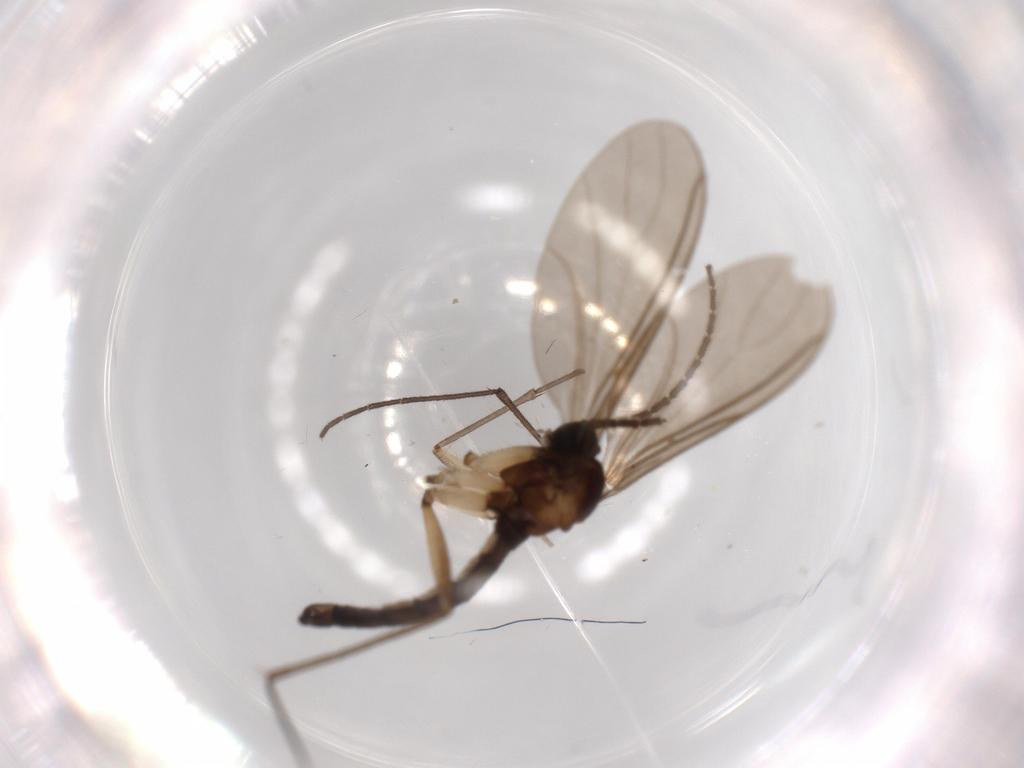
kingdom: Animalia
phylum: Arthropoda
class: Insecta
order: Diptera
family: Sciaridae
